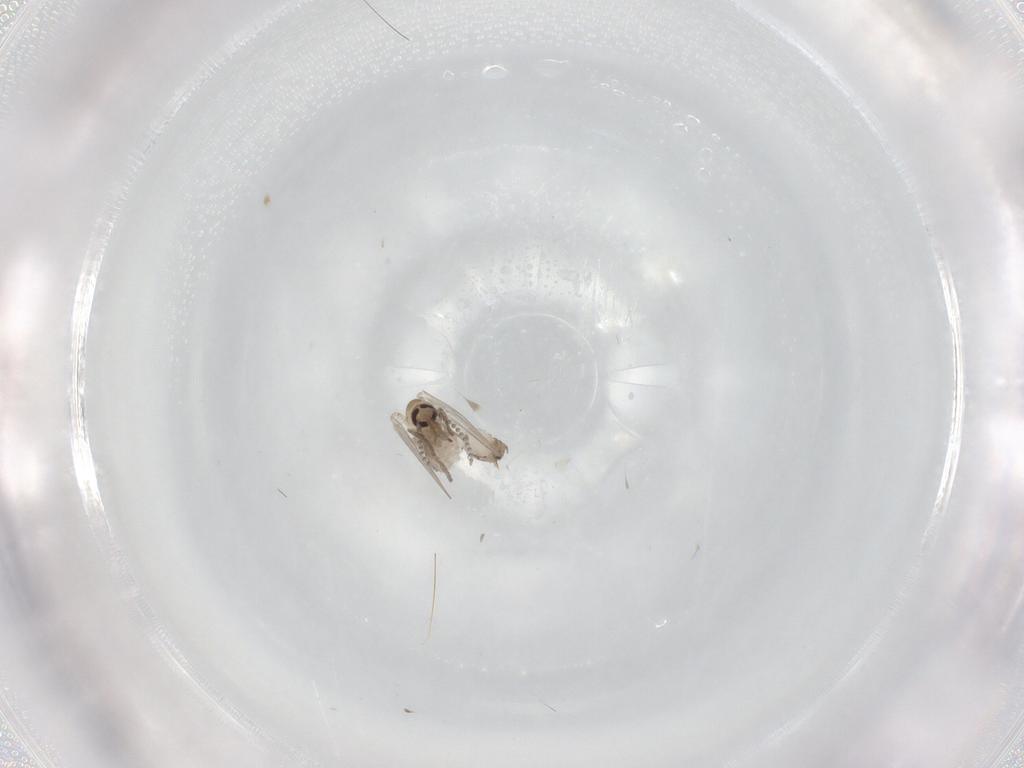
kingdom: Animalia
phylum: Arthropoda
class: Insecta
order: Diptera
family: Psychodidae
